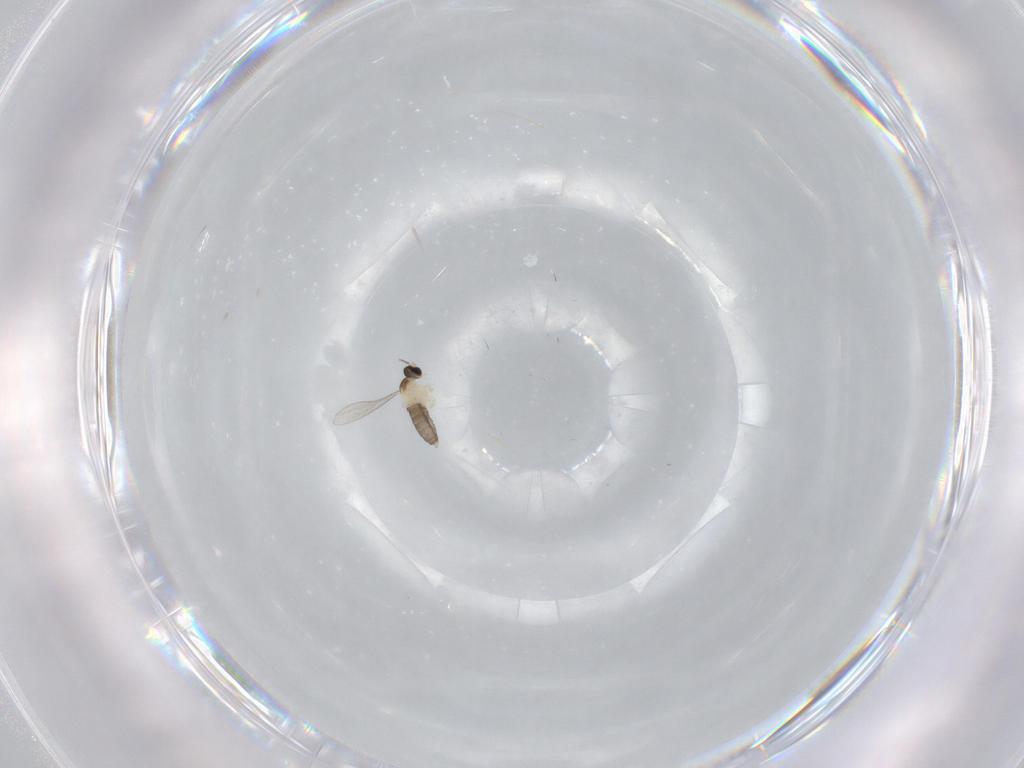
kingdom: Animalia
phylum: Arthropoda
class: Insecta
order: Diptera
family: Cecidomyiidae
